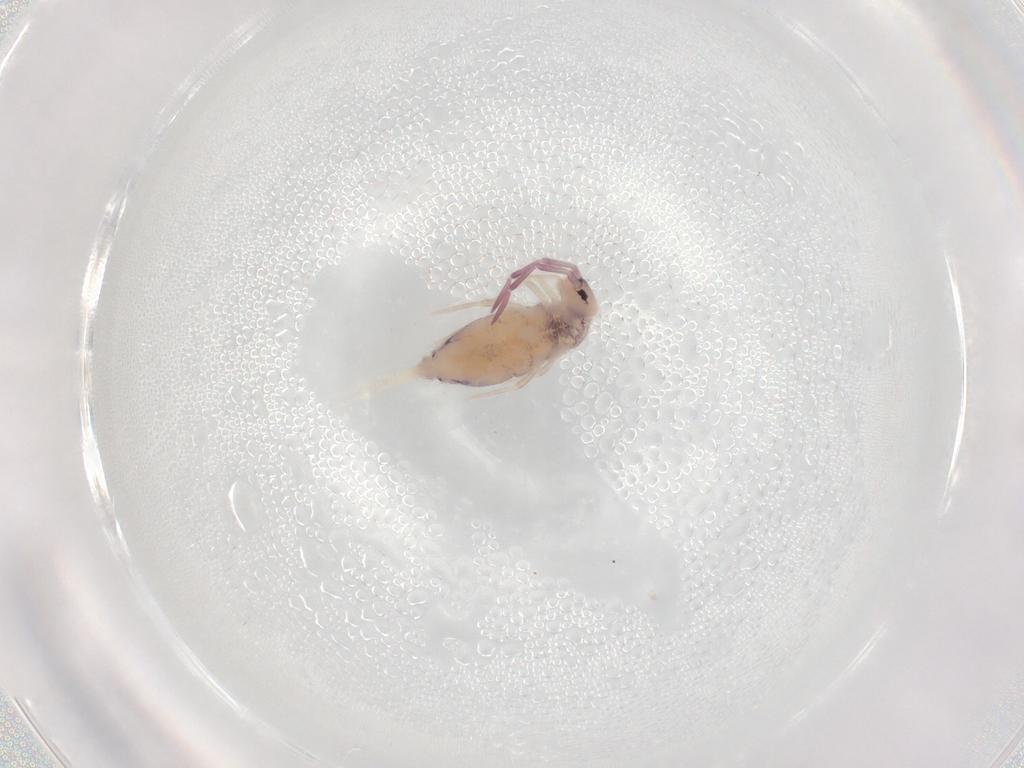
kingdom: Animalia
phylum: Arthropoda
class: Collembola
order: Entomobryomorpha
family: Entomobryidae
